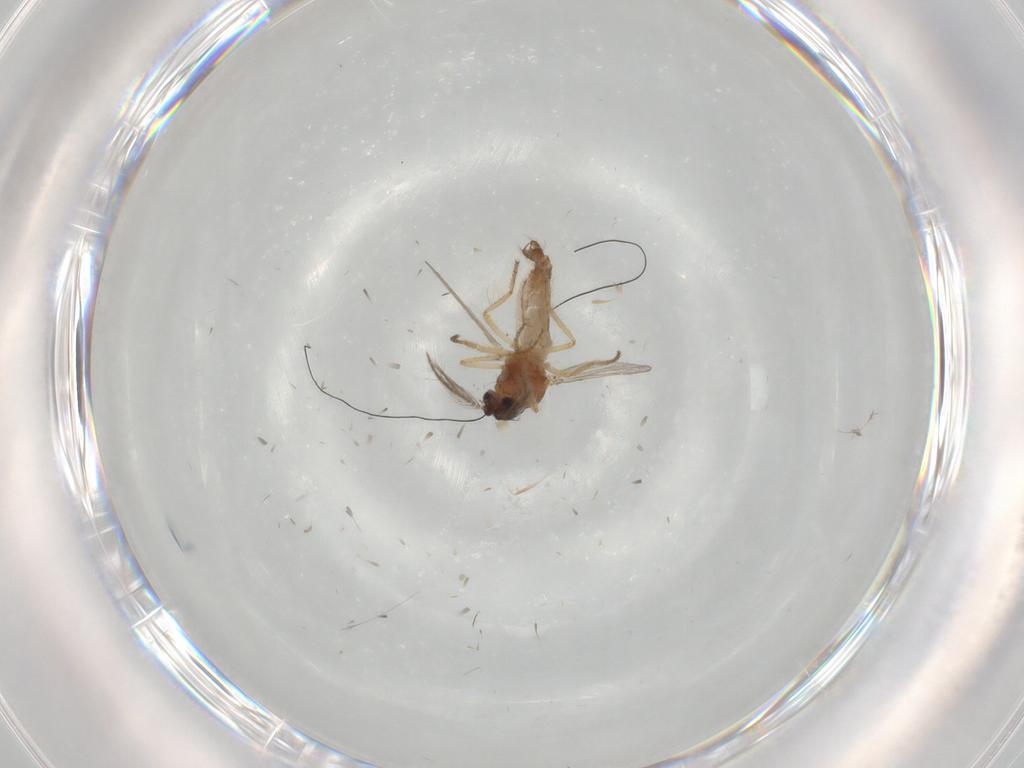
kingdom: Animalia
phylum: Arthropoda
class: Insecta
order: Diptera
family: Ceratopogonidae
